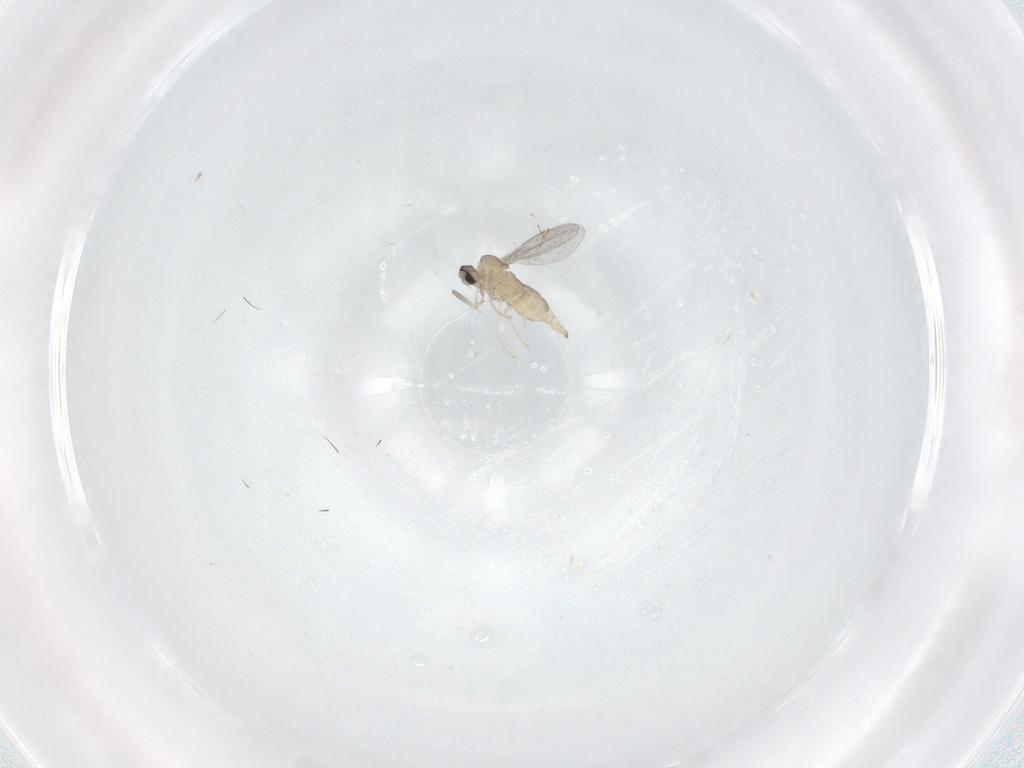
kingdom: Animalia
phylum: Arthropoda
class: Insecta
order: Diptera
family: Cecidomyiidae
